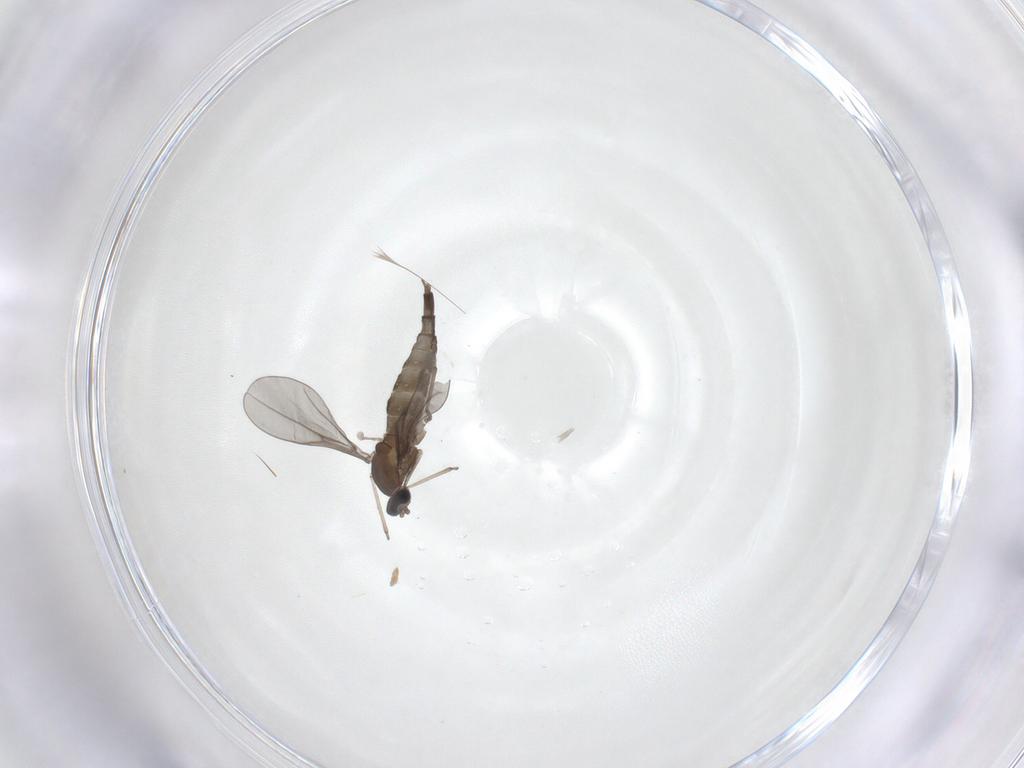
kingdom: Animalia
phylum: Arthropoda
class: Insecta
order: Diptera
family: Cecidomyiidae
